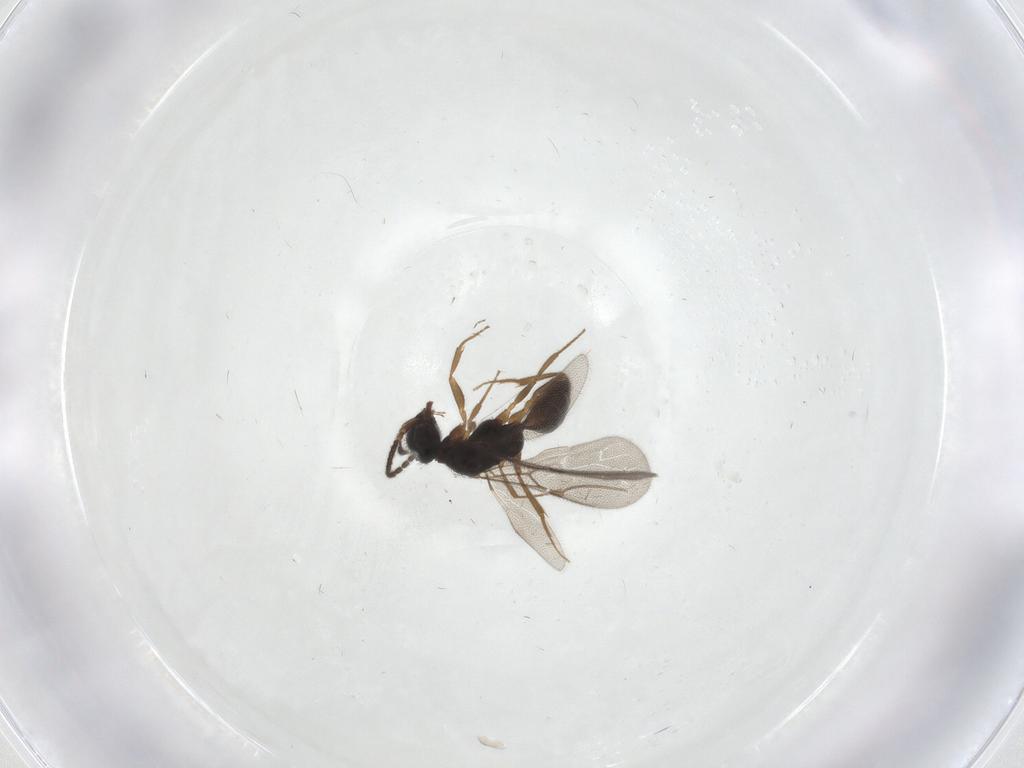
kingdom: Animalia
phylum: Arthropoda
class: Insecta
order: Hymenoptera
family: Bethylidae
